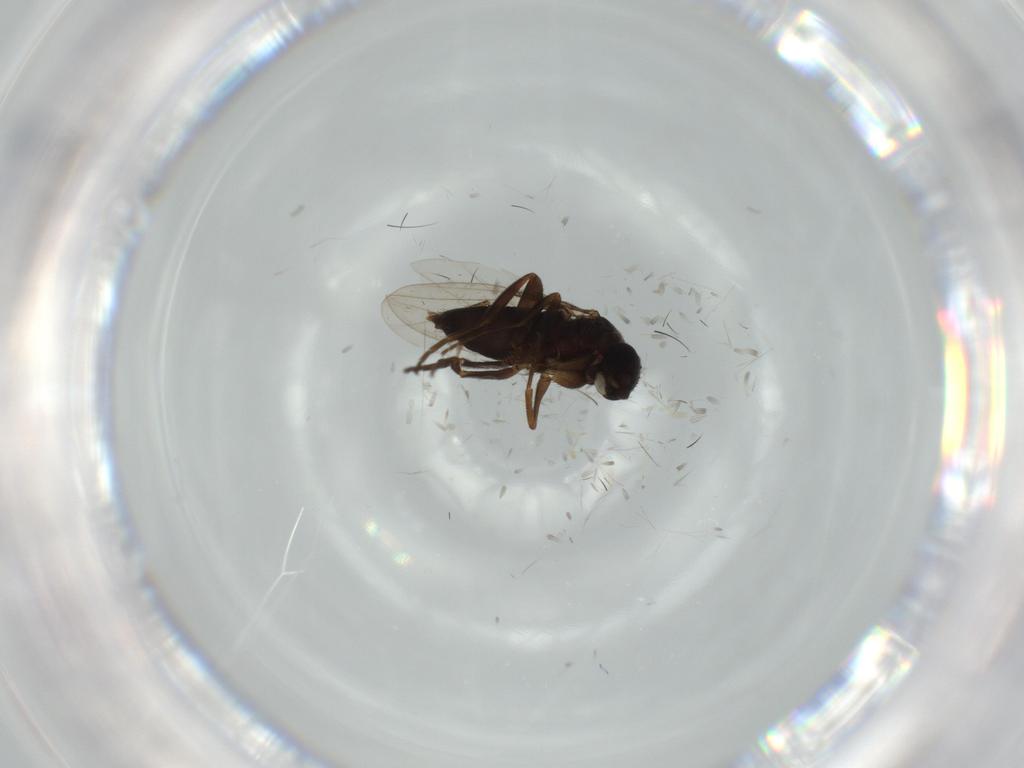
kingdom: Animalia
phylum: Arthropoda
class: Insecta
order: Diptera
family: Phoridae
